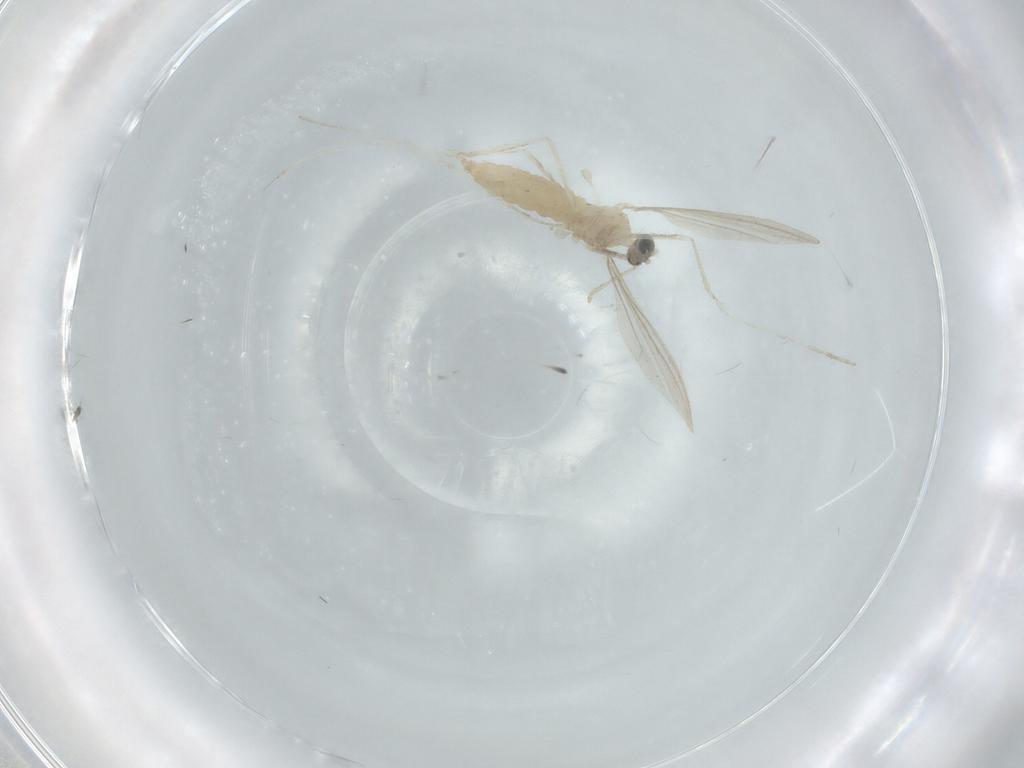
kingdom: Animalia
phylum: Arthropoda
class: Insecta
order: Diptera
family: Cecidomyiidae
